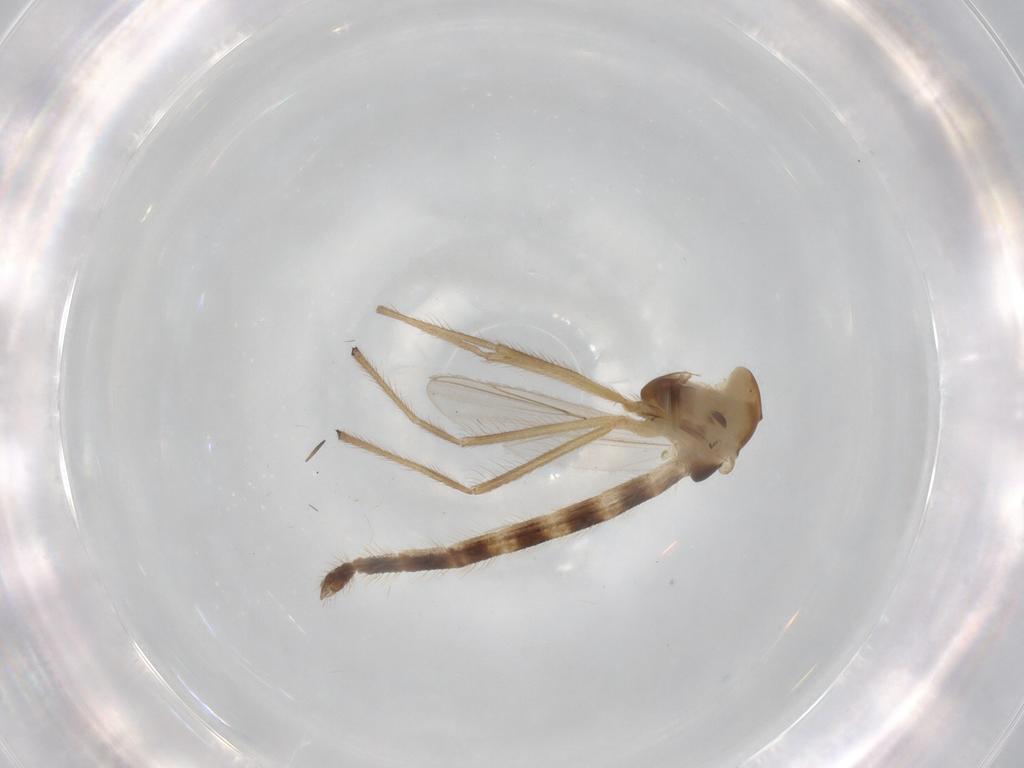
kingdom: Animalia
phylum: Arthropoda
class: Insecta
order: Diptera
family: Chironomidae
